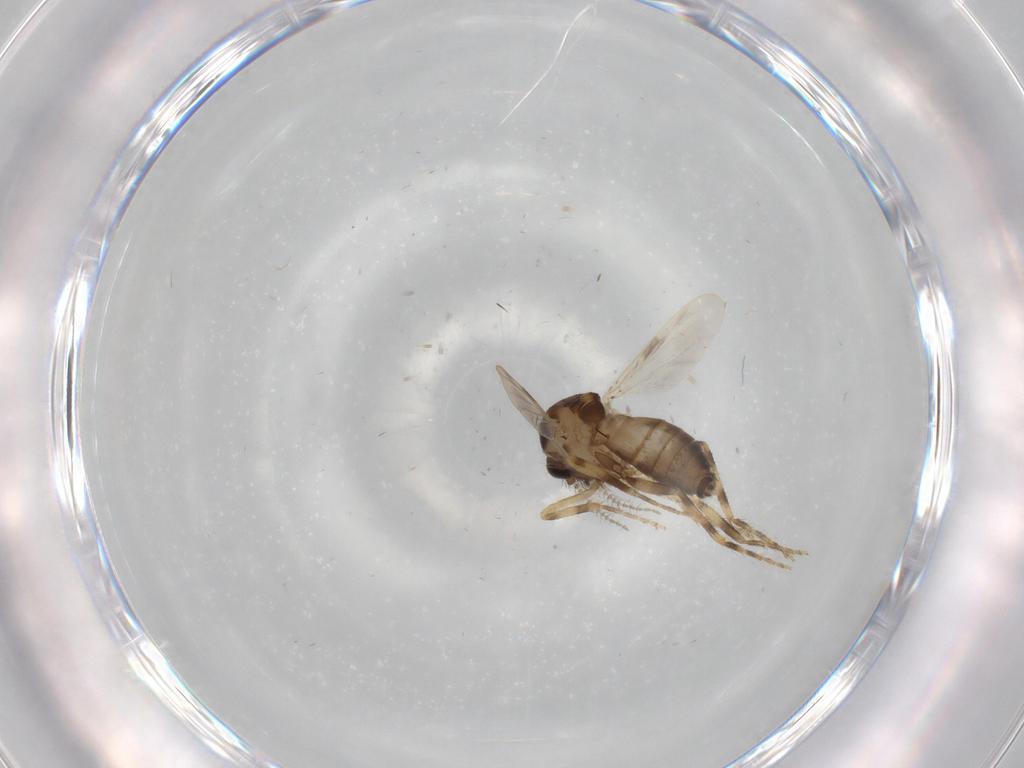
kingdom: Animalia
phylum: Arthropoda
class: Insecta
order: Diptera
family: Ceratopogonidae
